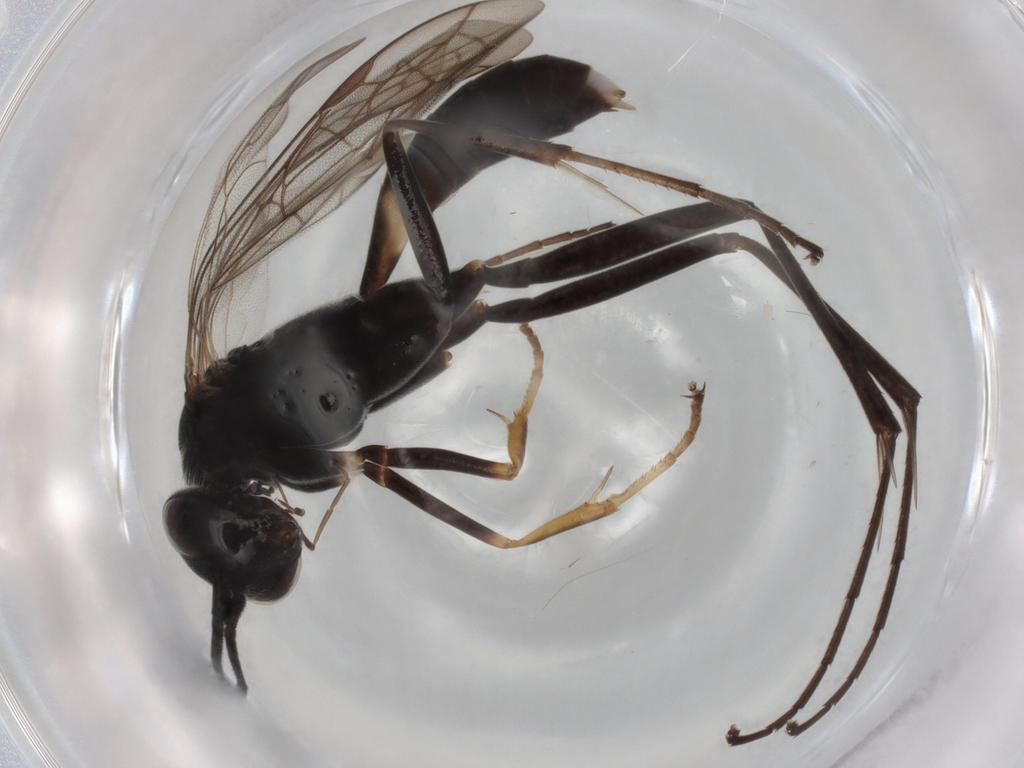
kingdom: Animalia
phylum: Arthropoda
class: Insecta
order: Hymenoptera
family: Pompilidae
